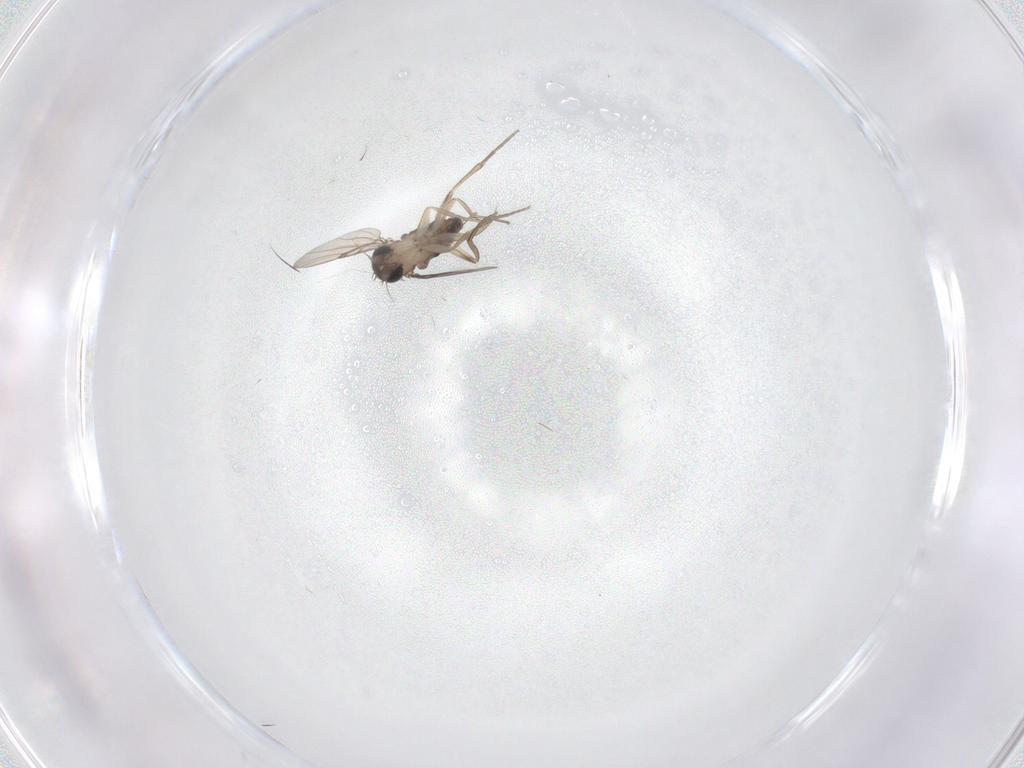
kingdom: Animalia
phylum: Arthropoda
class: Insecta
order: Diptera
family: Phoridae
